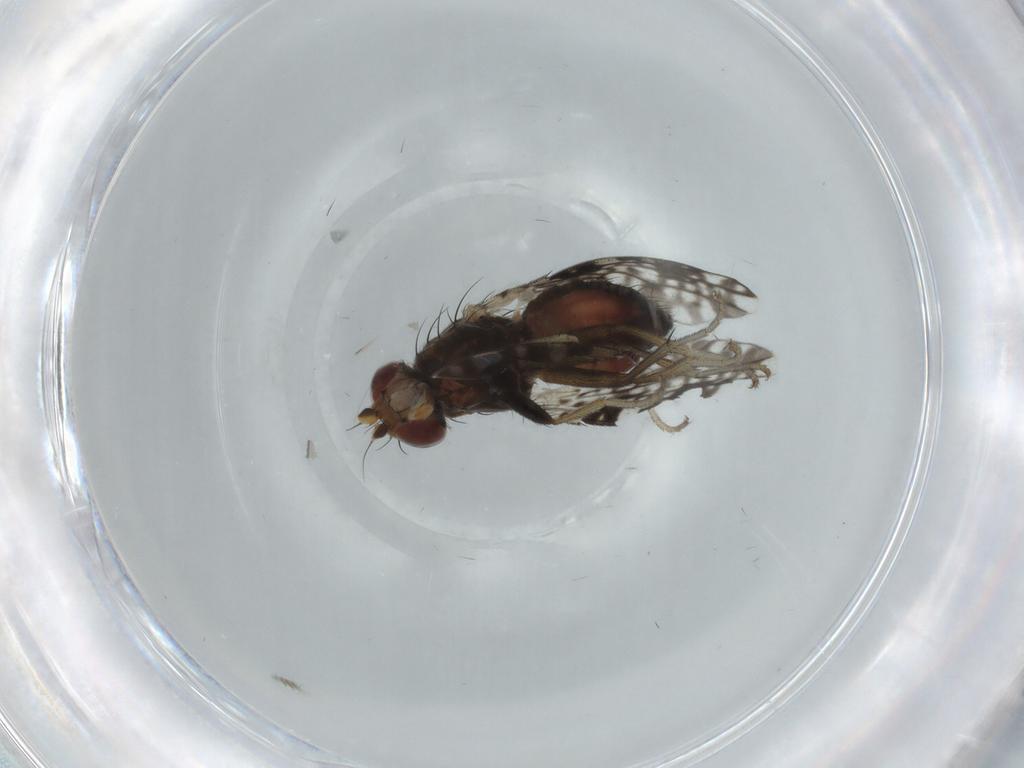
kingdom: Animalia
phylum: Arthropoda
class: Insecta
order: Diptera
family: Tephritidae
